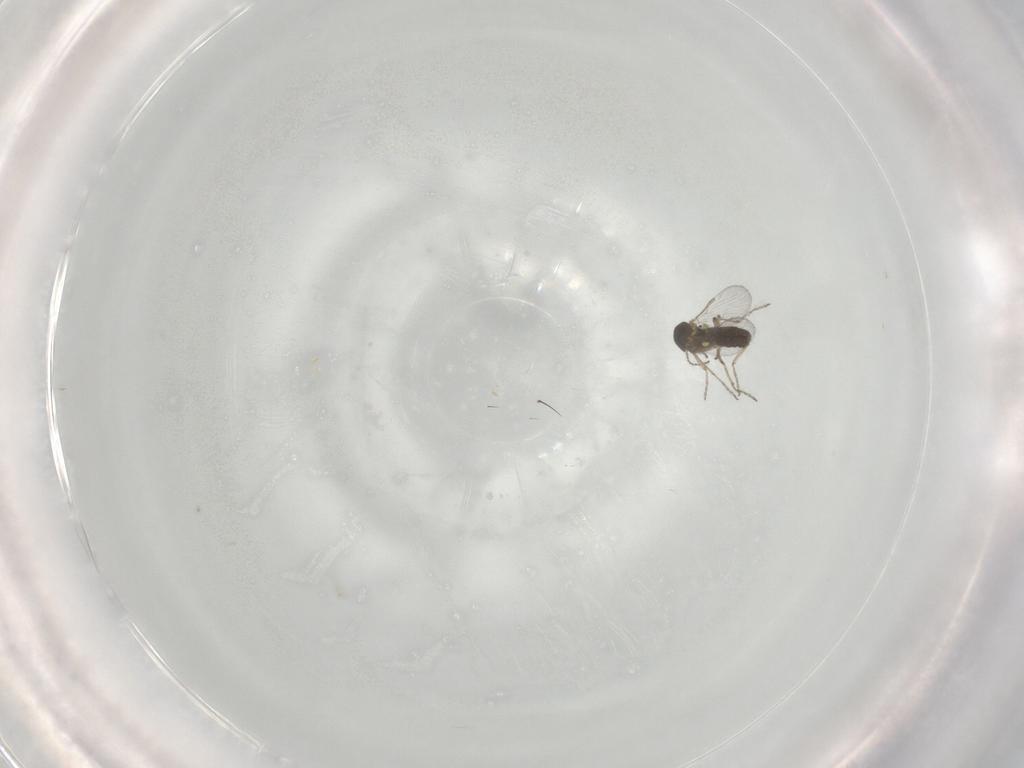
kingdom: Animalia
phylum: Arthropoda
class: Insecta
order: Diptera
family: Ceratopogonidae
